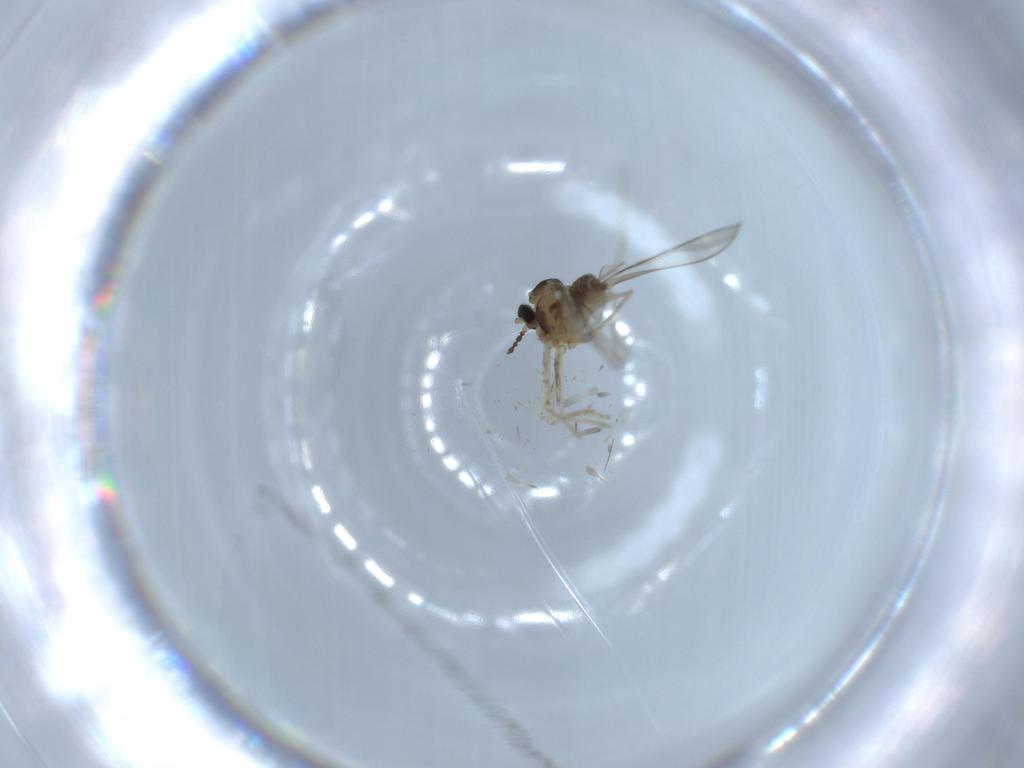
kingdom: Animalia
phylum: Arthropoda
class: Insecta
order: Diptera
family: Cecidomyiidae
